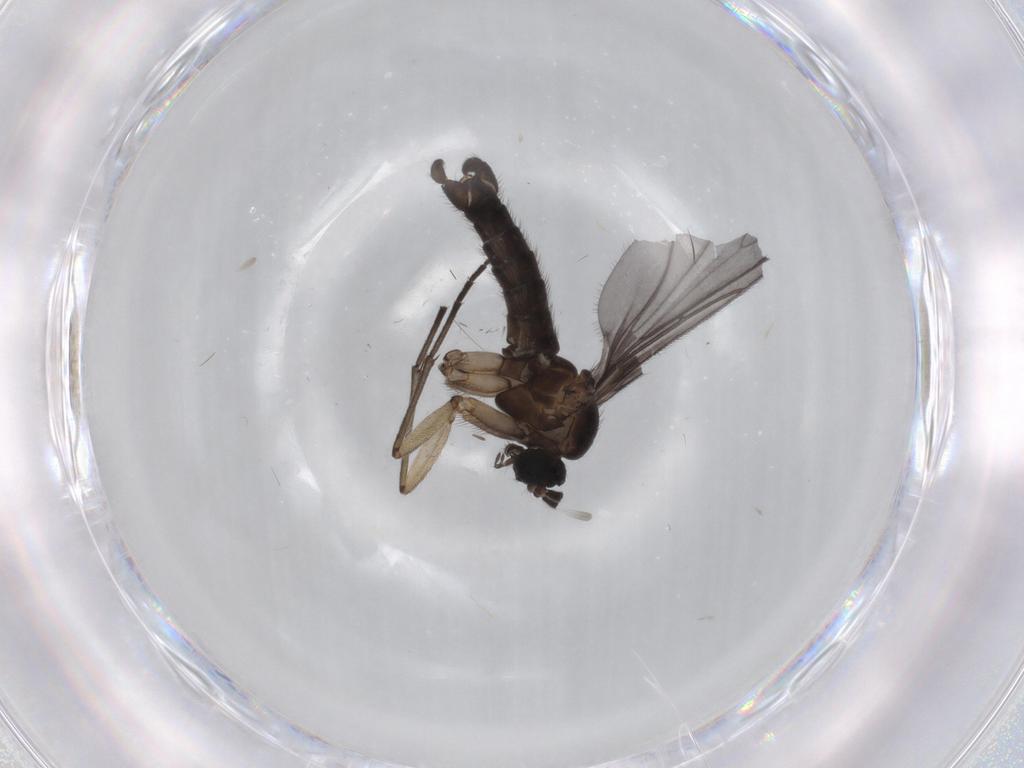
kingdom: Animalia
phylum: Arthropoda
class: Insecta
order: Diptera
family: Sciaridae
